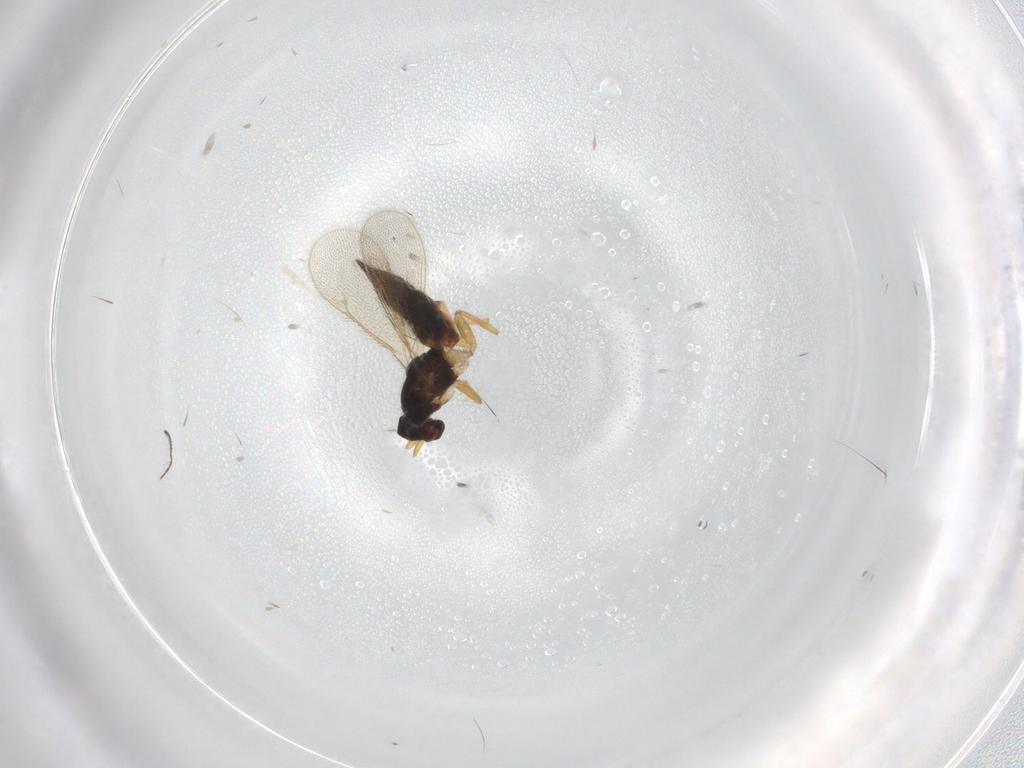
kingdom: Animalia
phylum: Arthropoda
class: Insecta
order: Hymenoptera
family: Eulophidae
